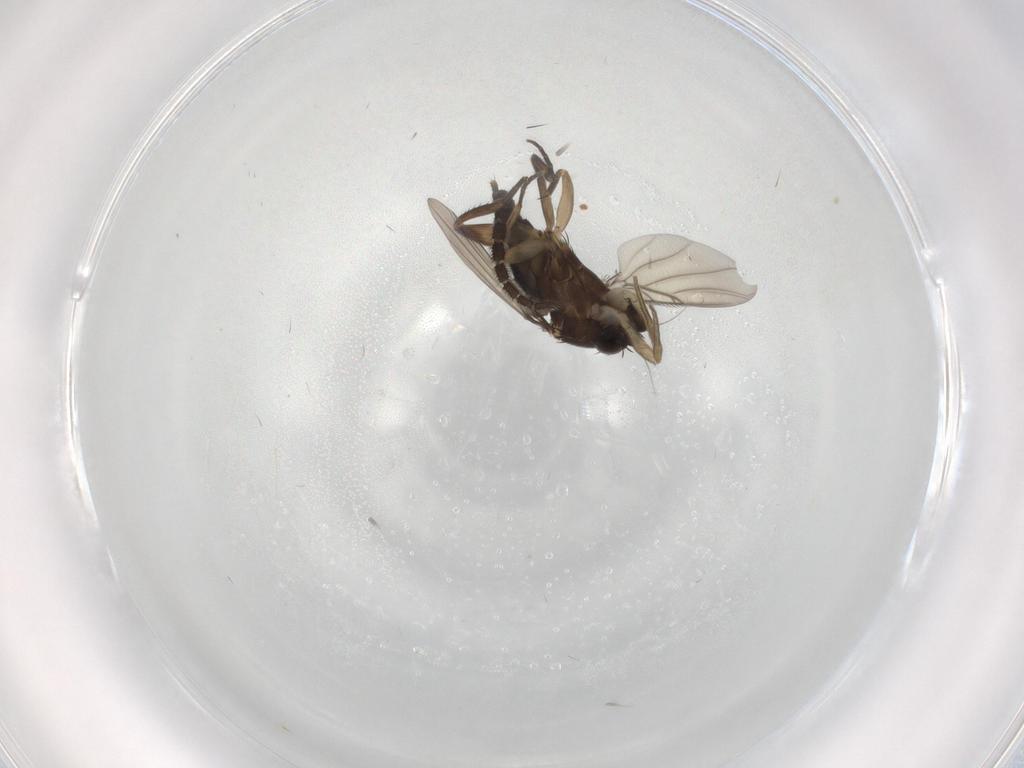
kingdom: Animalia
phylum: Arthropoda
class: Insecta
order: Diptera
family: Phoridae
